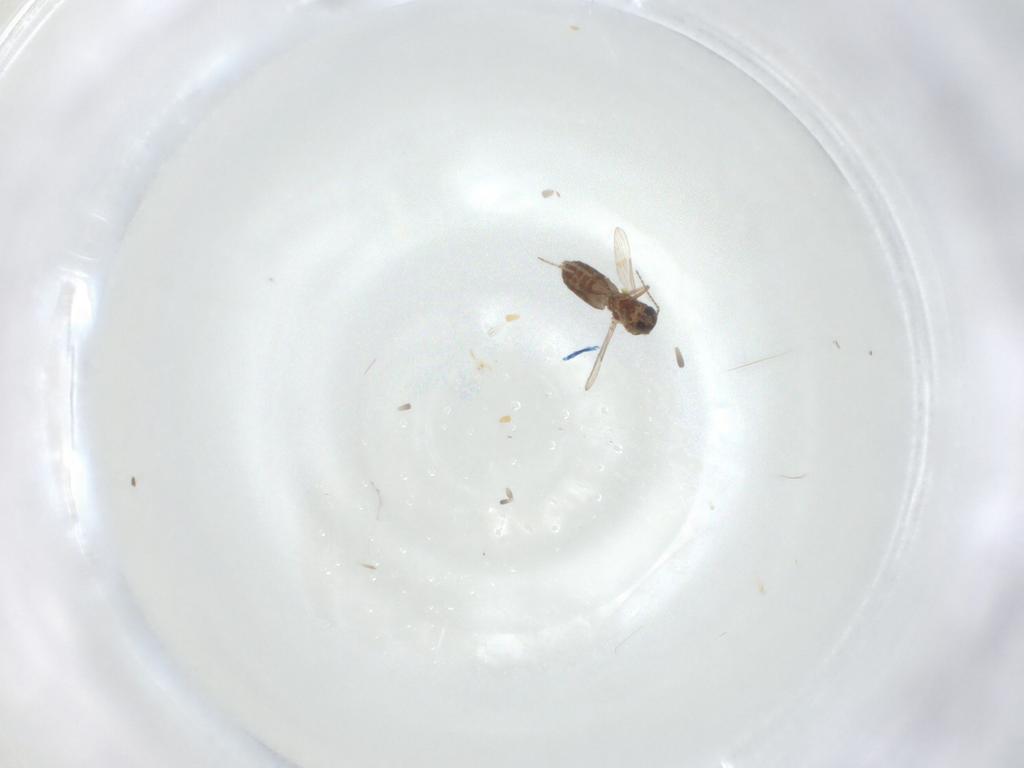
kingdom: Animalia
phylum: Arthropoda
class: Insecta
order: Diptera
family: Ceratopogonidae
